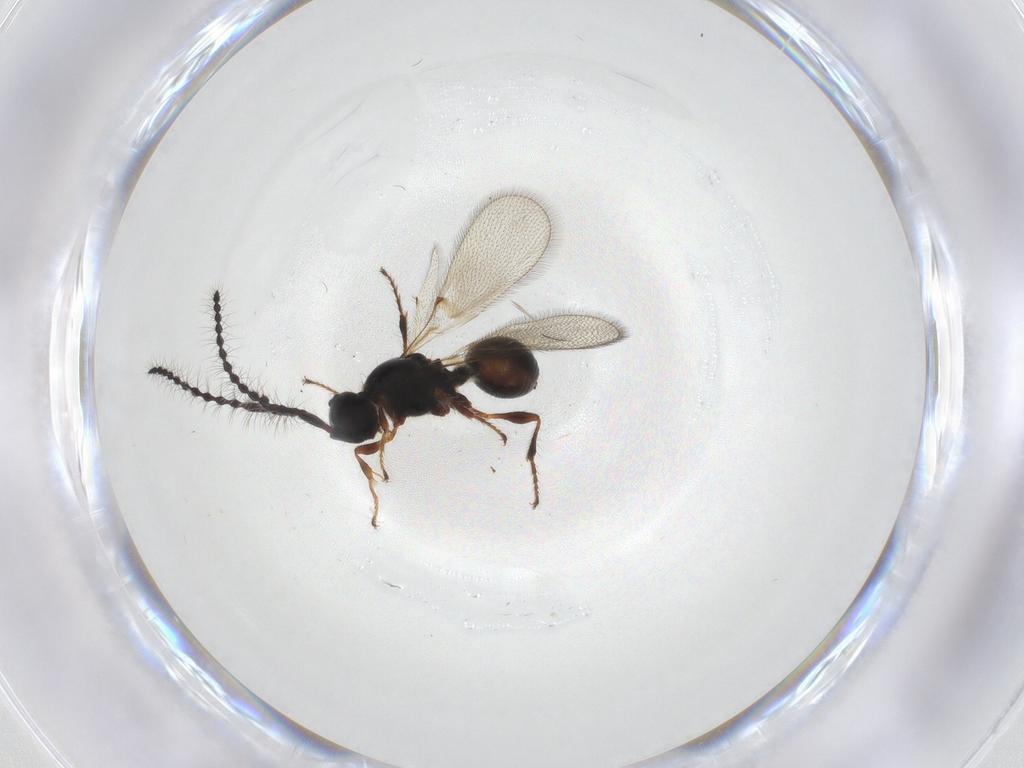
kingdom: Animalia
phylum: Arthropoda
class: Insecta
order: Hymenoptera
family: Diapriidae
